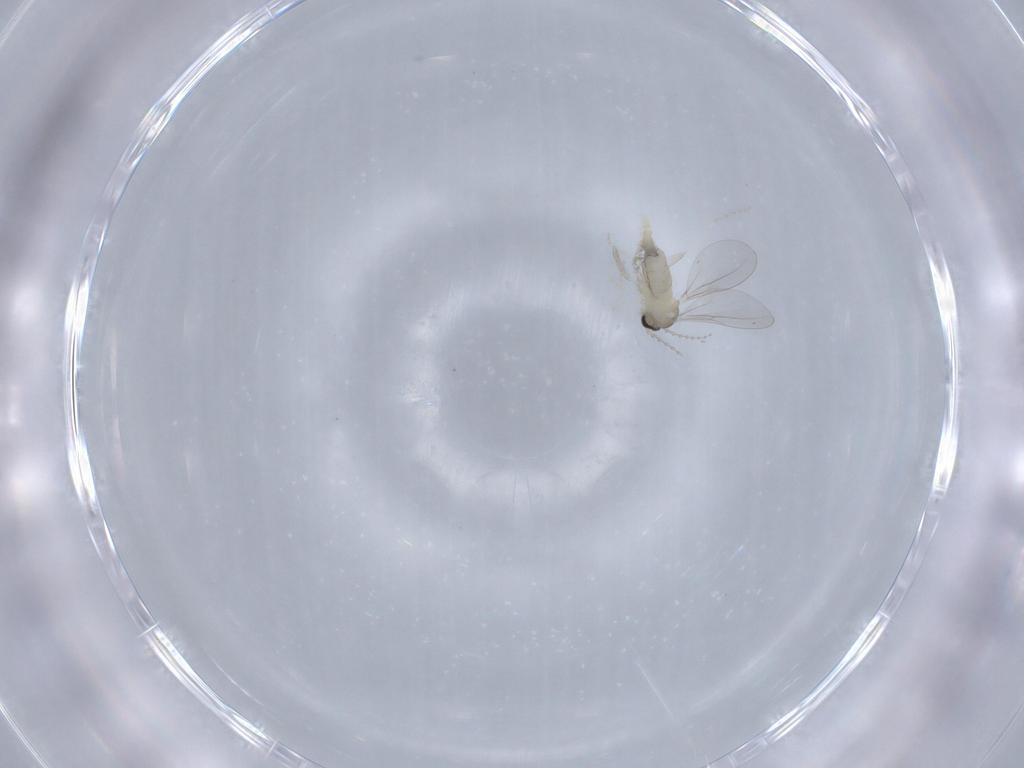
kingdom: Animalia
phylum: Arthropoda
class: Insecta
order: Diptera
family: Cecidomyiidae
